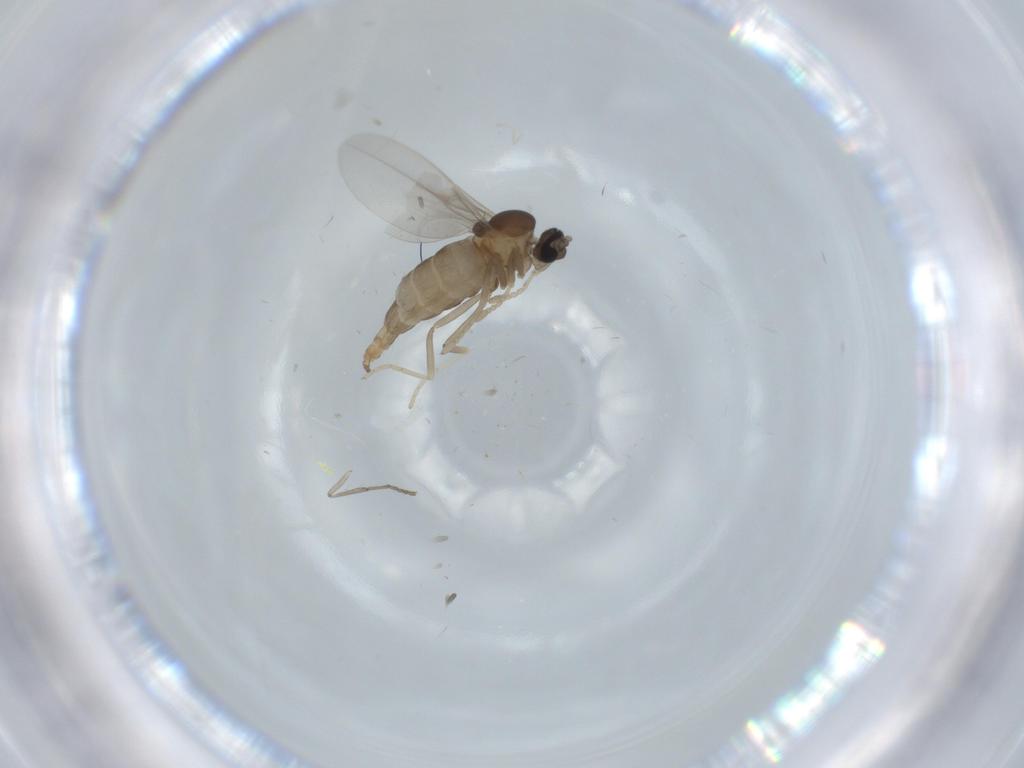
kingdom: Animalia
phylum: Arthropoda
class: Insecta
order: Diptera
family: Cecidomyiidae
